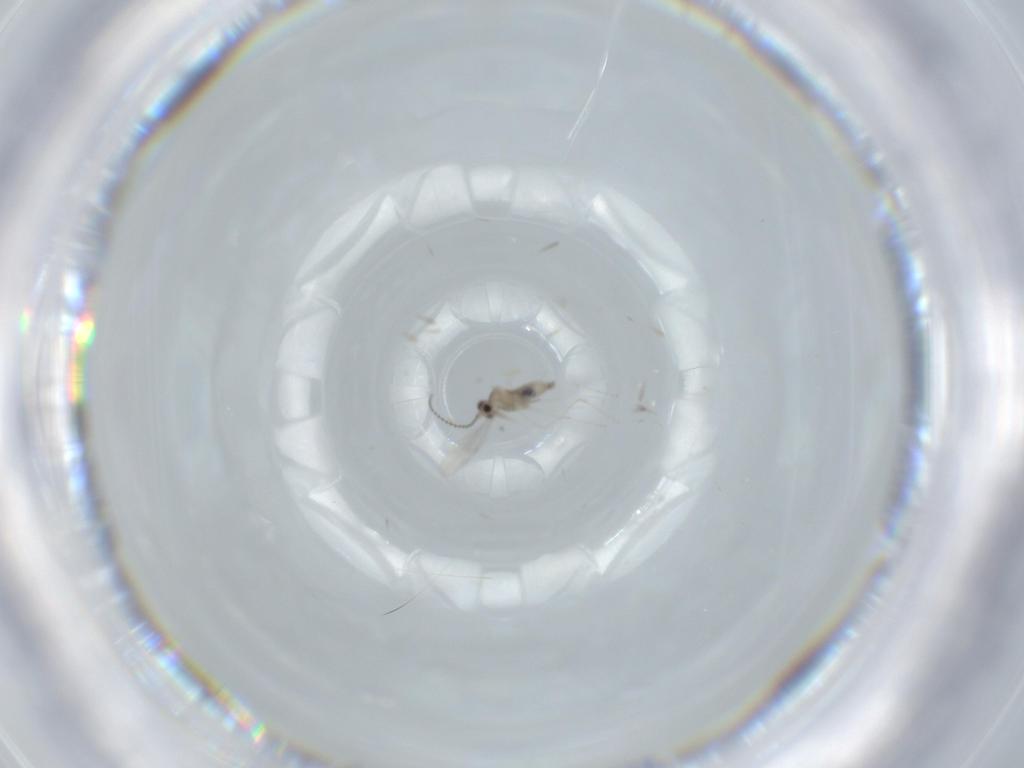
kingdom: Animalia
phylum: Arthropoda
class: Insecta
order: Diptera
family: Cecidomyiidae
